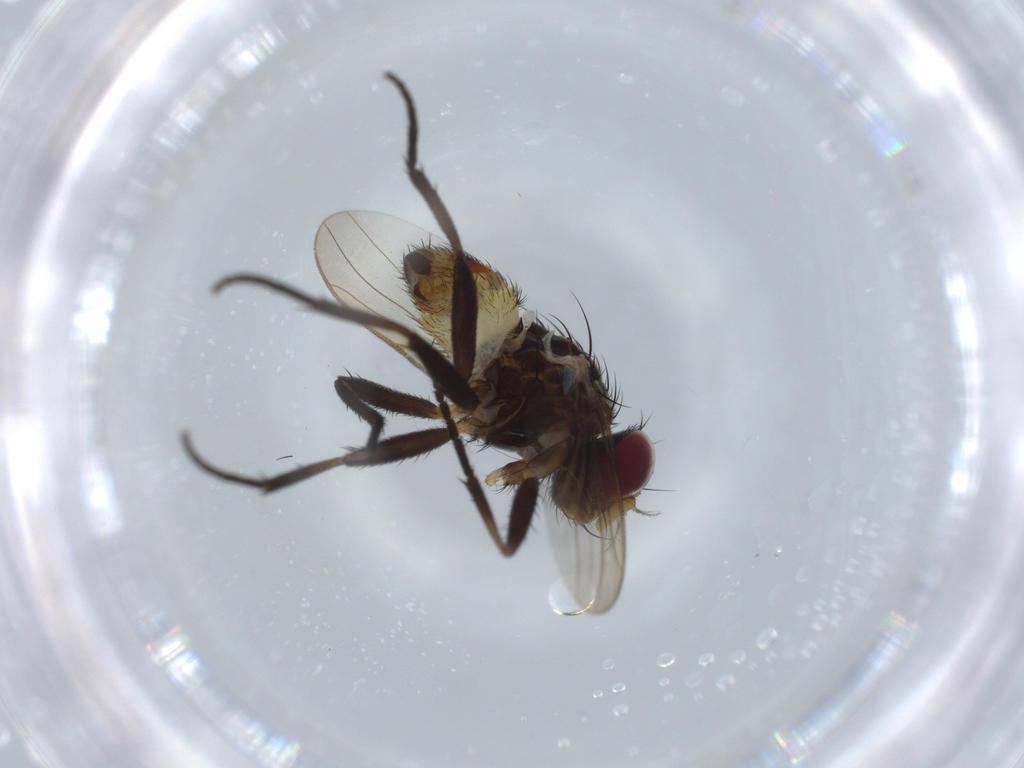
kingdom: Animalia
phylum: Arthropoda
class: Insecta
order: Diptera
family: Anthomyiidae
